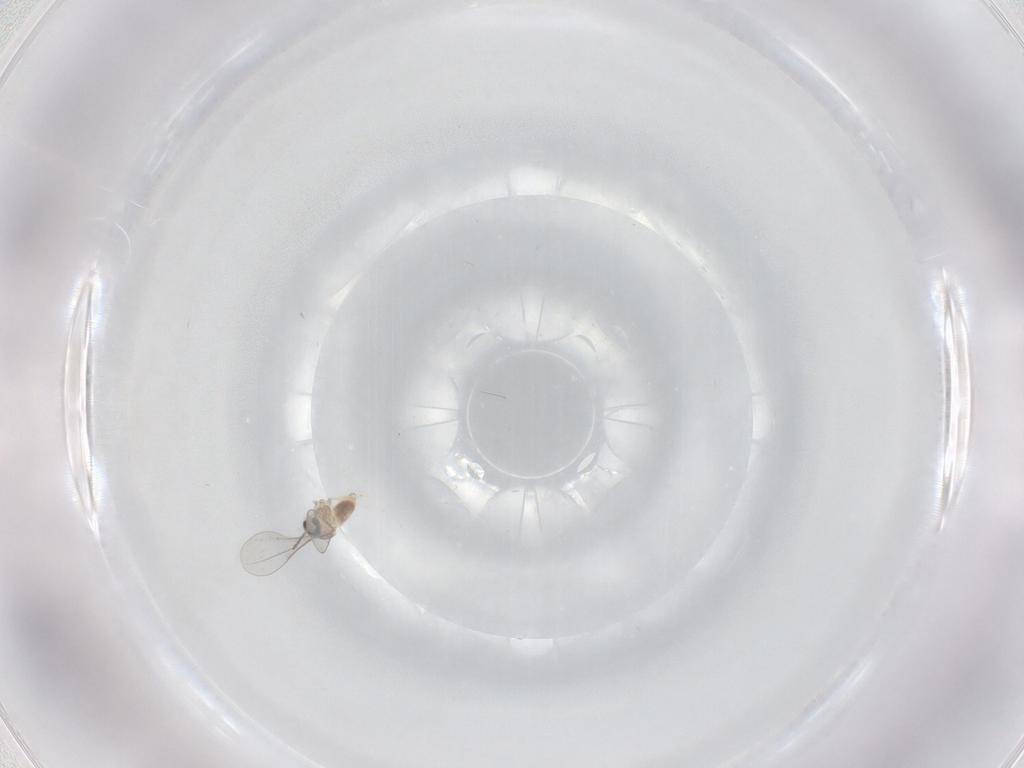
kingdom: Animalia
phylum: Arthropoda
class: Insecta
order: Diptera
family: Cecidomyiidae
